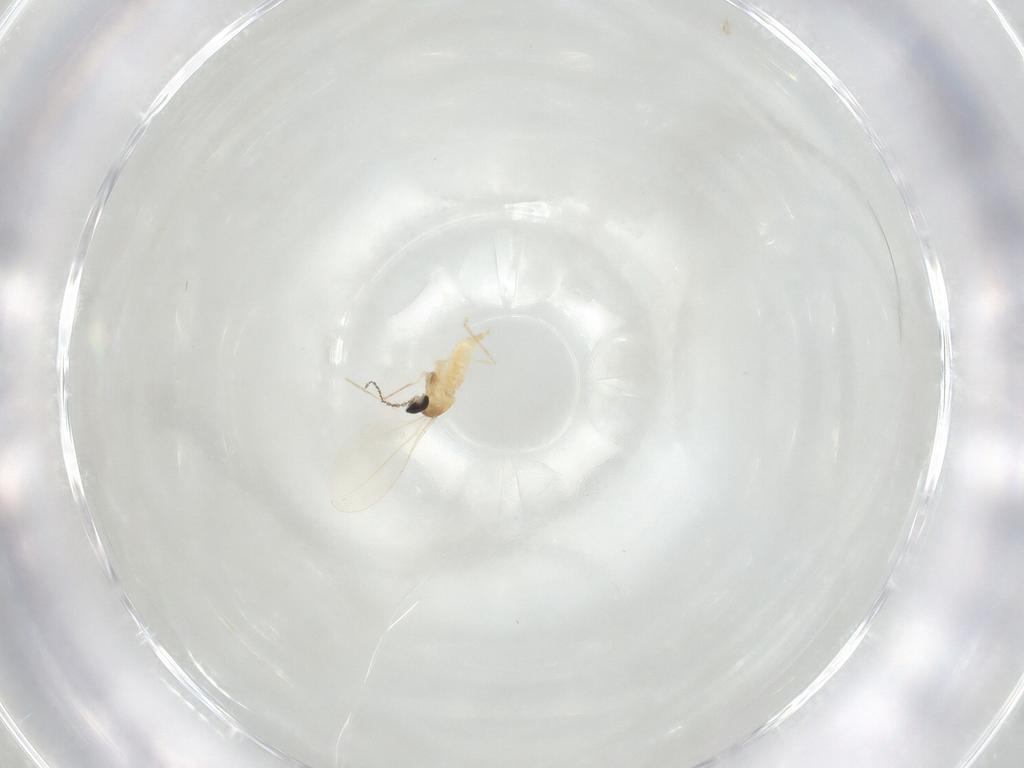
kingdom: Animalia
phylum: Arthropoda
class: Insecta
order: Diptera
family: Cecidomyiidae
